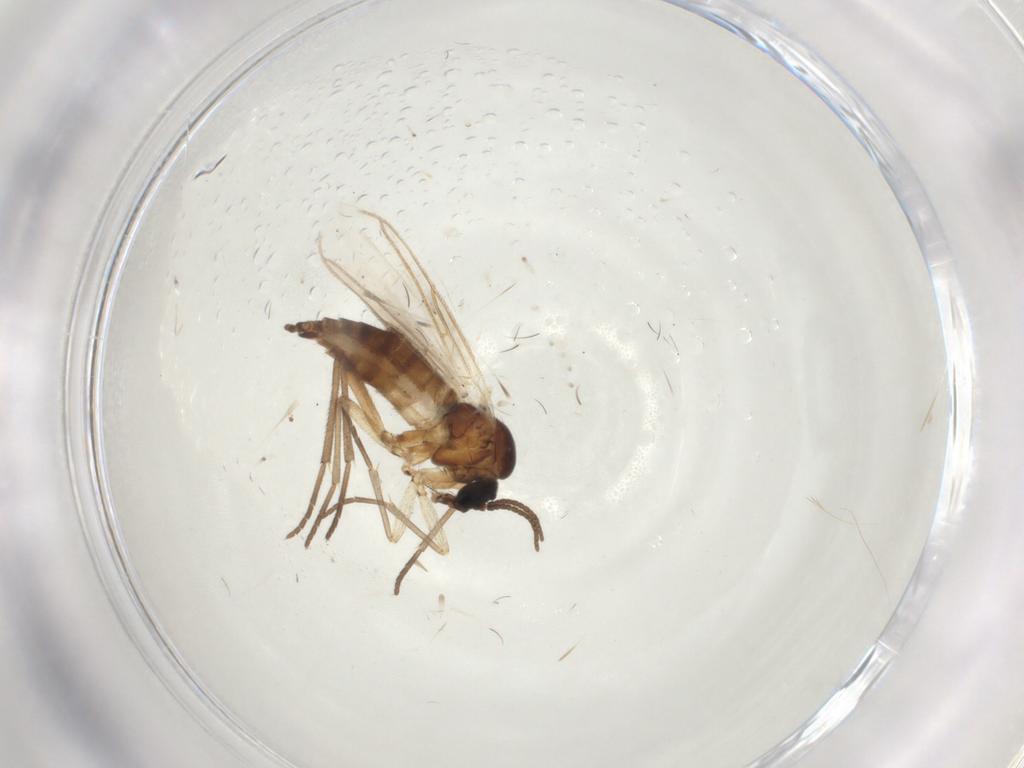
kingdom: Animalia
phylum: Arthropoda
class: Insecta
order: Diptera
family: Sciaridae
